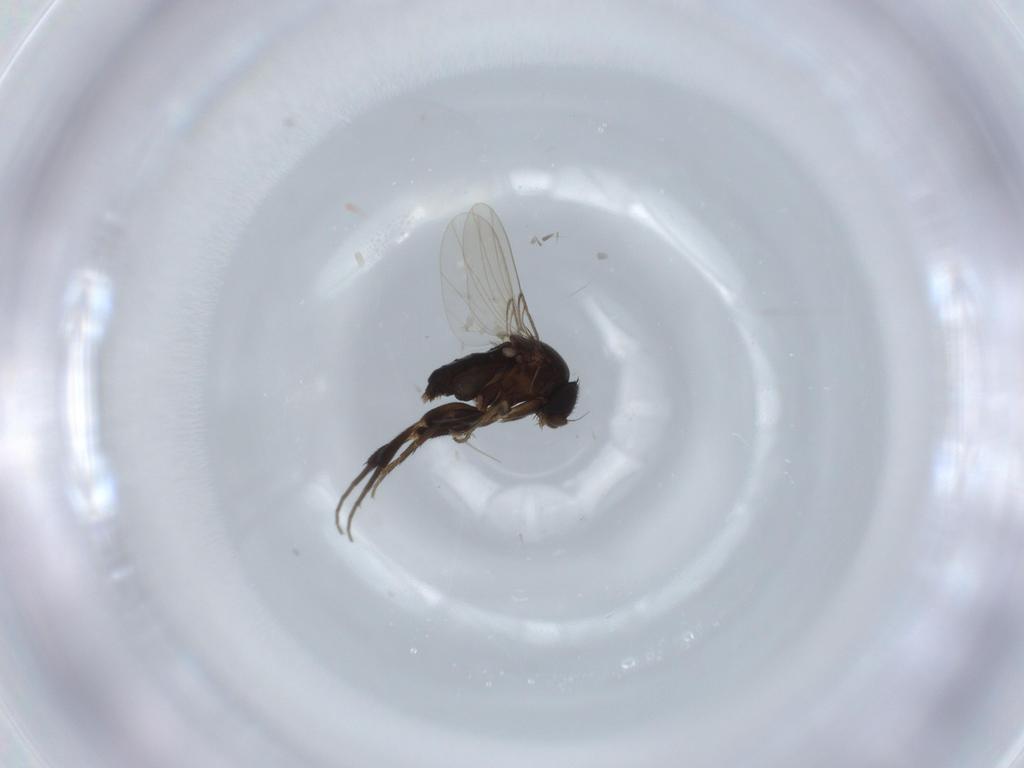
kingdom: Animalia
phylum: Arthropoda
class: Insecta
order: Diptera
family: Phoridae
